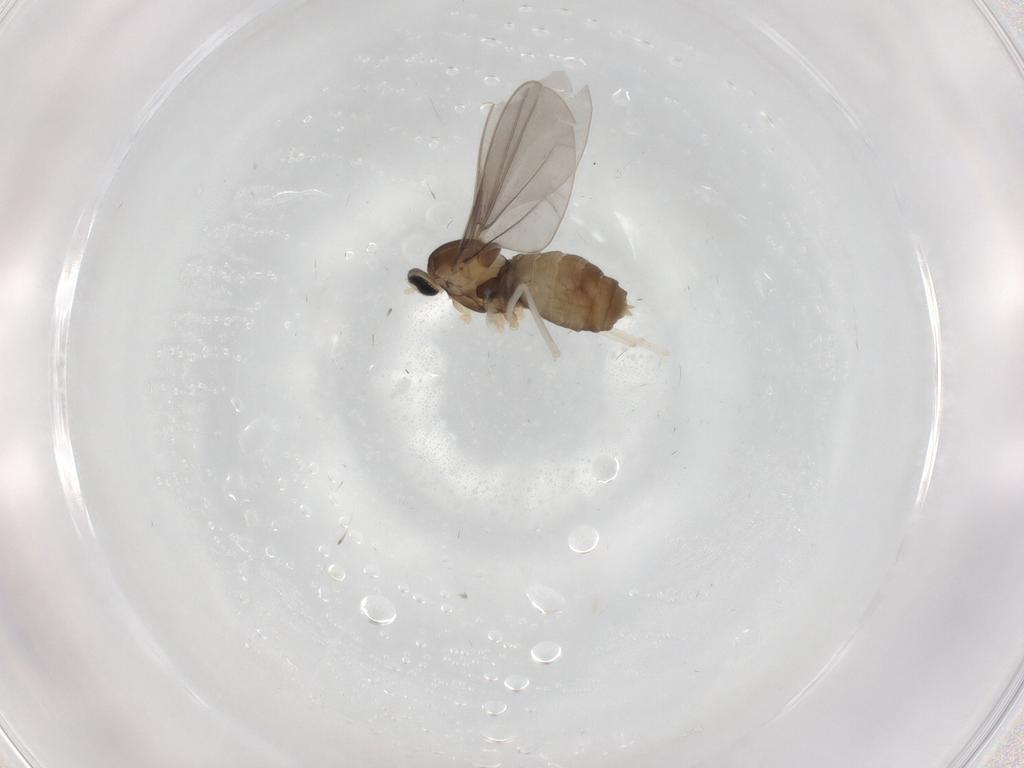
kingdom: Animalia
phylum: Arthropoda
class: Insecta
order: Diptera
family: Cecidomyiidae
